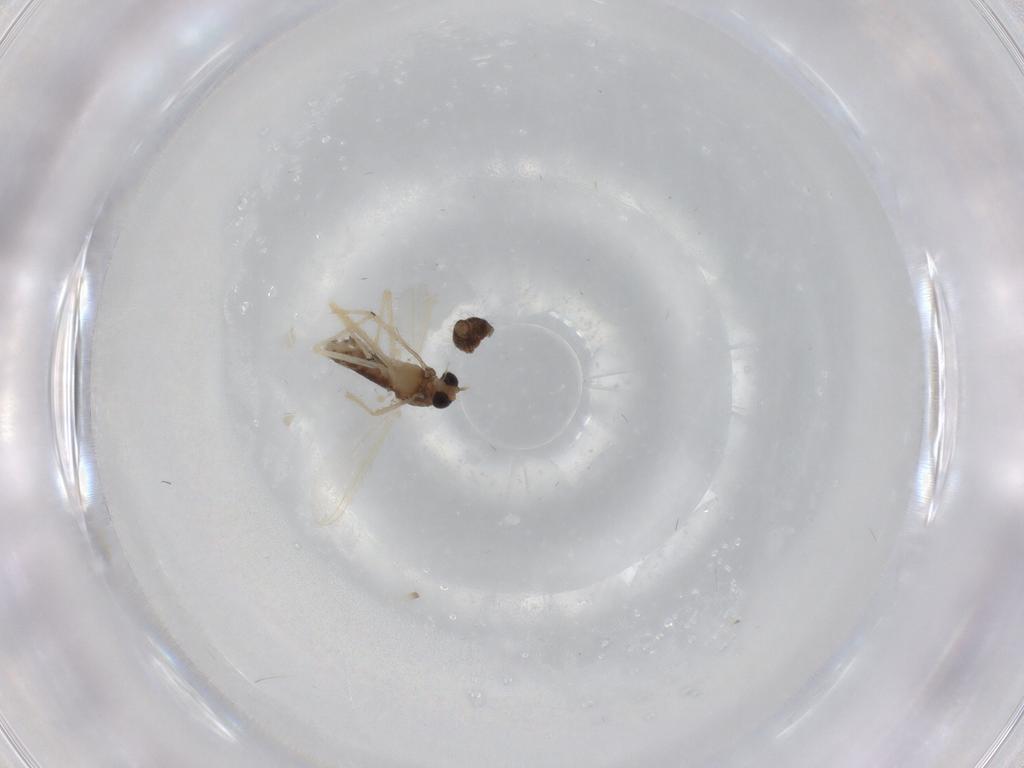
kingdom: Animalia
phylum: Arthropoda
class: Insecta
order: Diptera
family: Chironomidae
